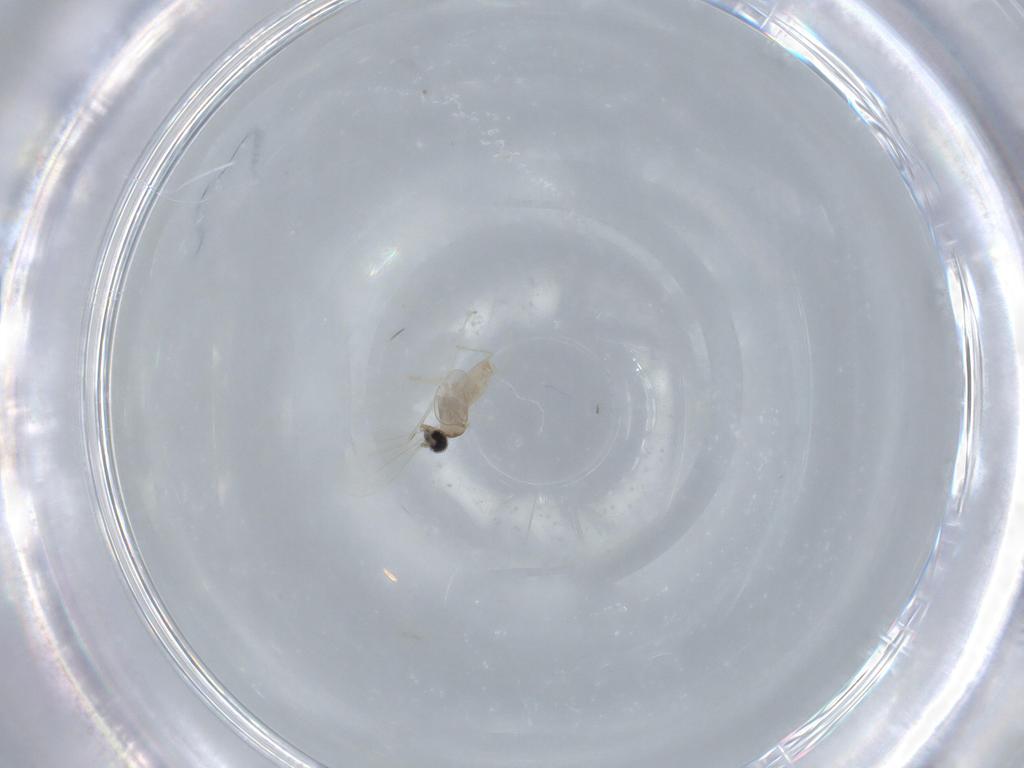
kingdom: Animalia
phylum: Arthropoda
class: Insecta
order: Diptera
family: Cecidomyiidae
